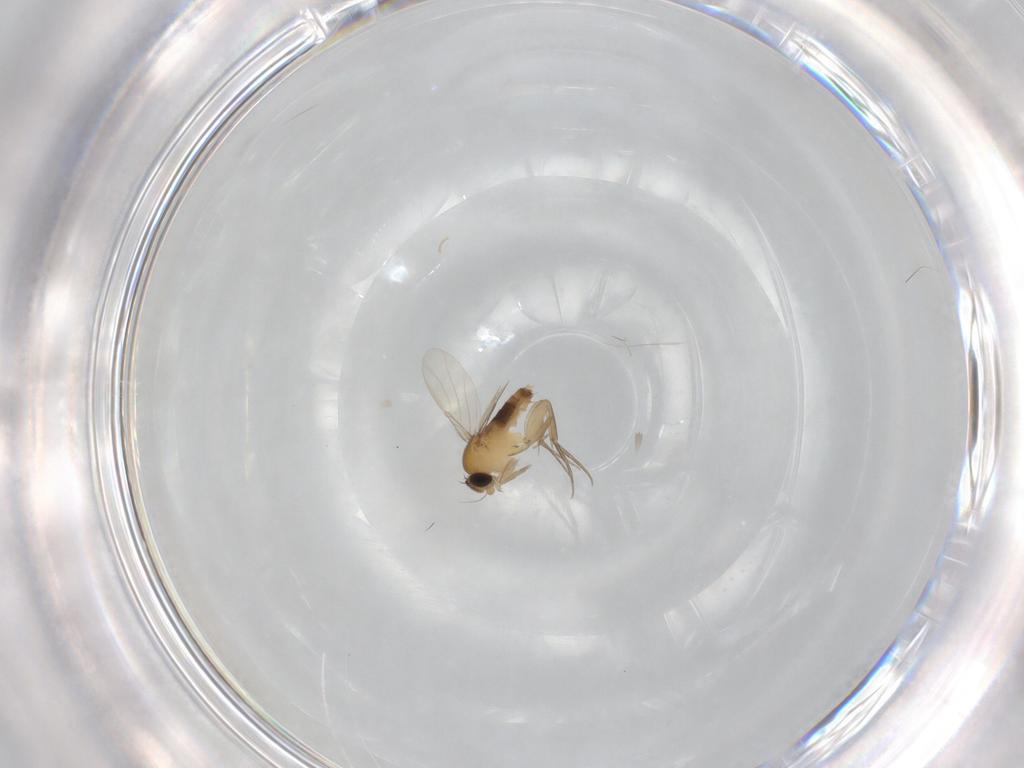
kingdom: Animalia
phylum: Arthropoda
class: Insecta
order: Diptera
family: Phoridae
